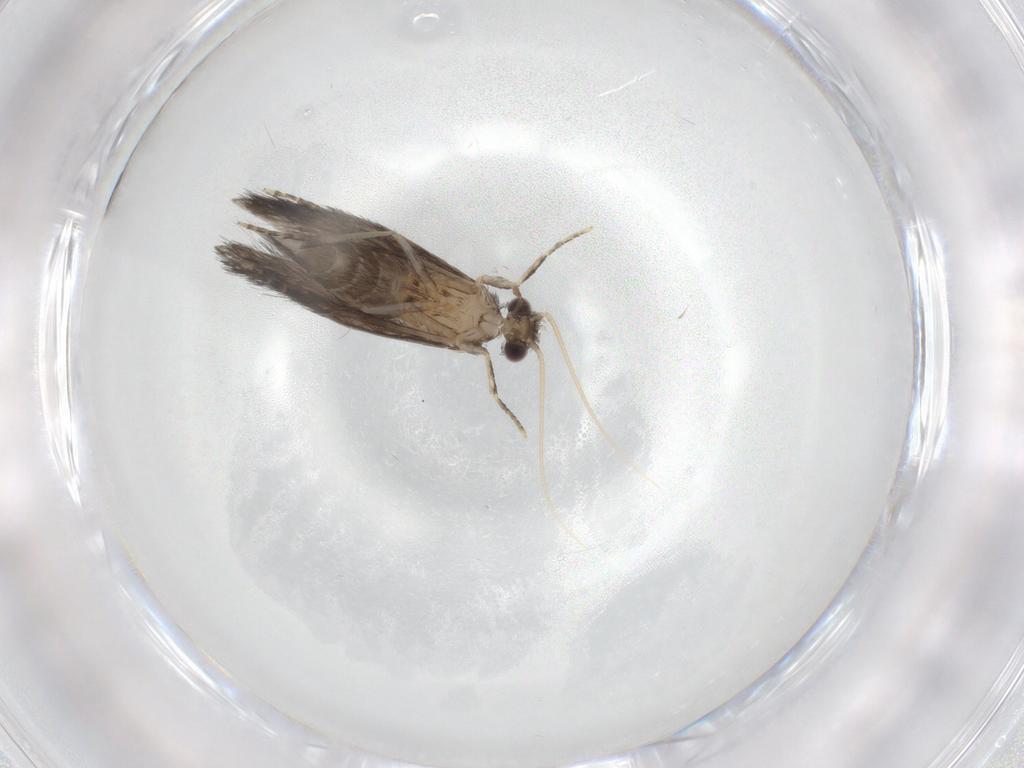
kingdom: Animalia
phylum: Arthropoda
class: Insecta
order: Trichoptera
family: Hydroptilidae
